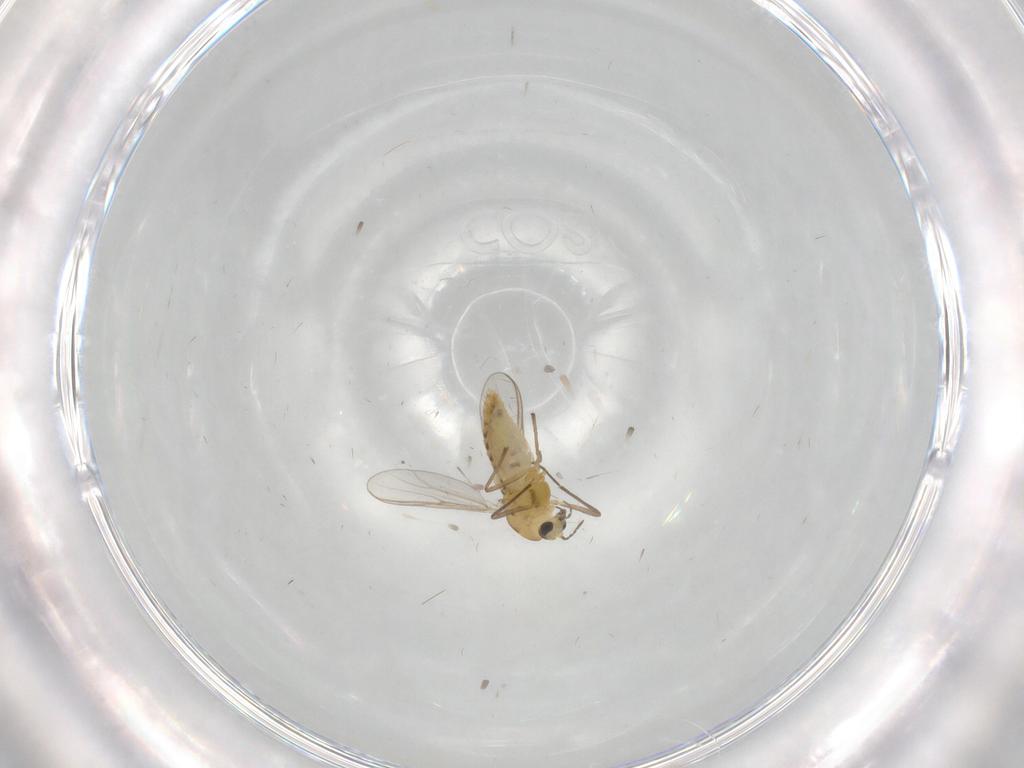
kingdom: Animalia
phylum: Arthropoda
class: Insecta
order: Diptera
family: Chironomidae
